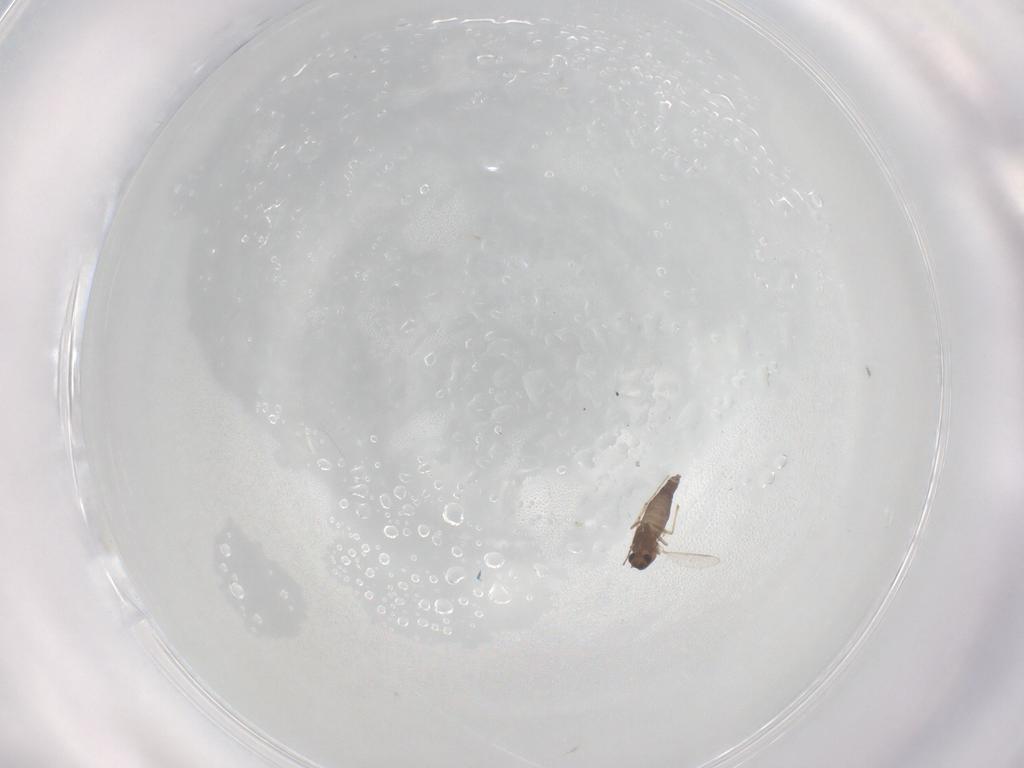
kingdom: Animalia
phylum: Arthropoda
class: Insecta
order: Diptera
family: Chironomidae
